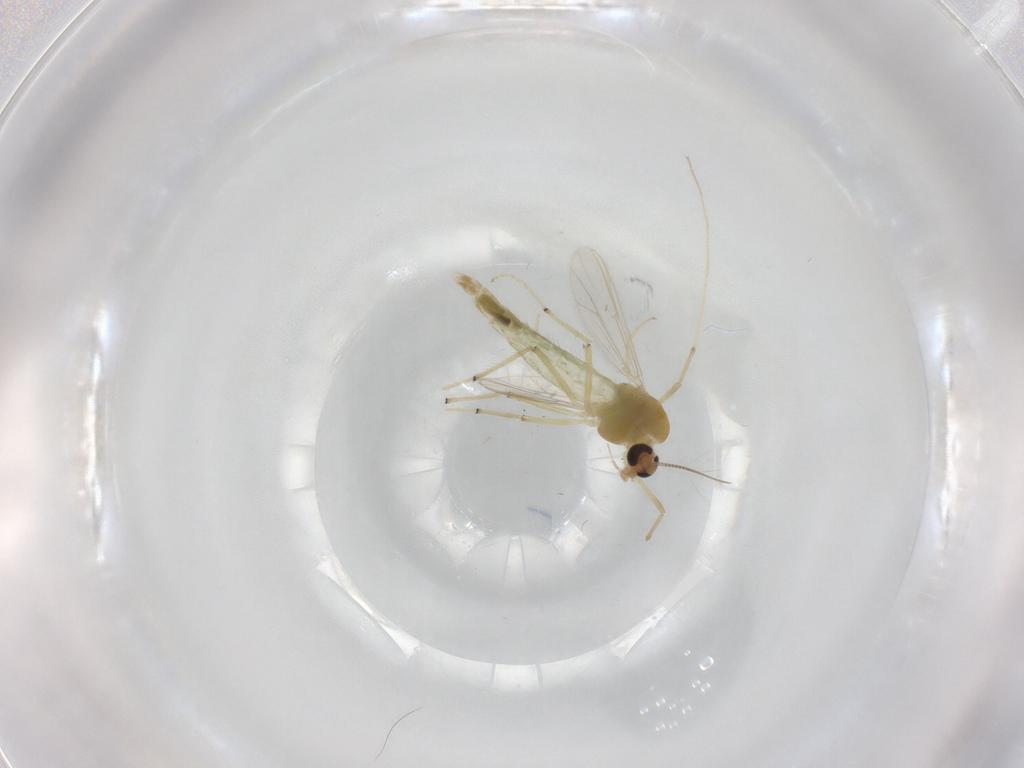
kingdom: Animalia
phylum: Arthropoda
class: Insecta
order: Diptera
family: Chironomidae
